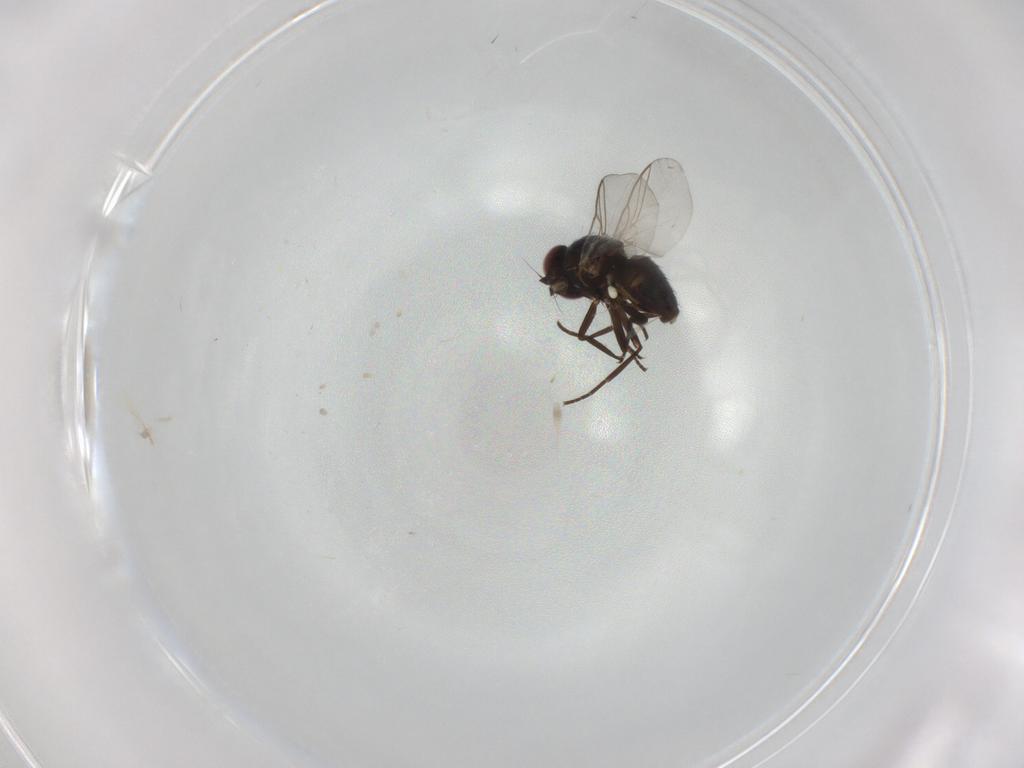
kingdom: Animalia
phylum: Arthropoda
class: Insecta
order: Diptera
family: Agromyzidae
